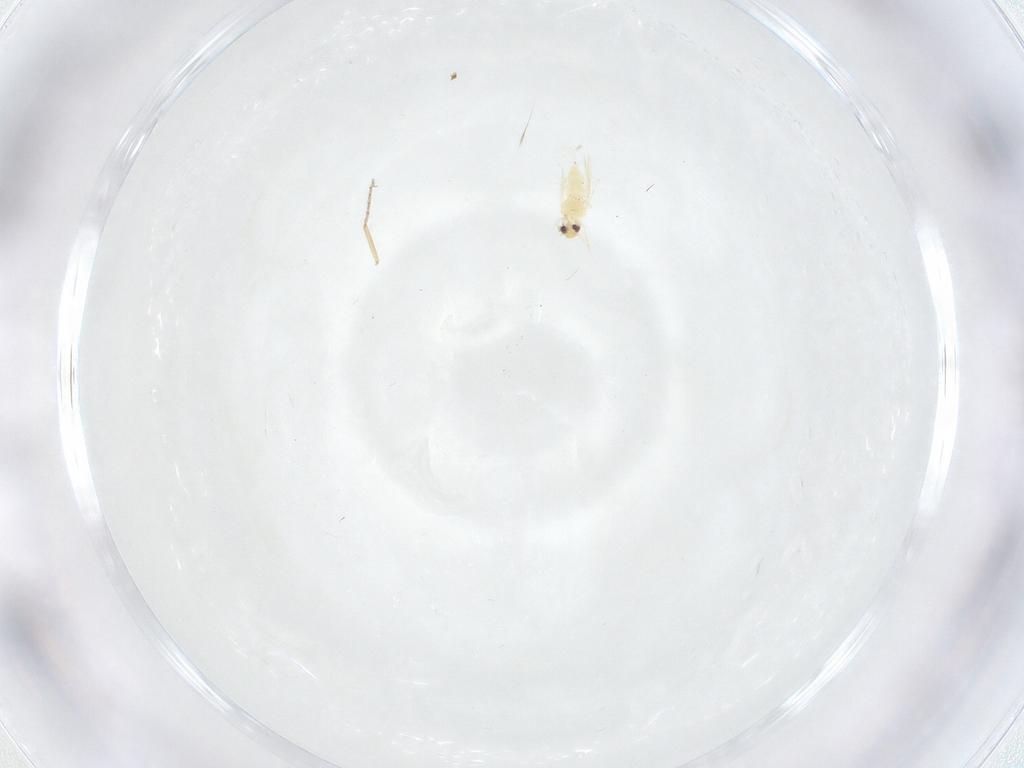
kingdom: Animalia
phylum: Arthropoda
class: Insecta
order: Hemiptera
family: Aleyrodidae
